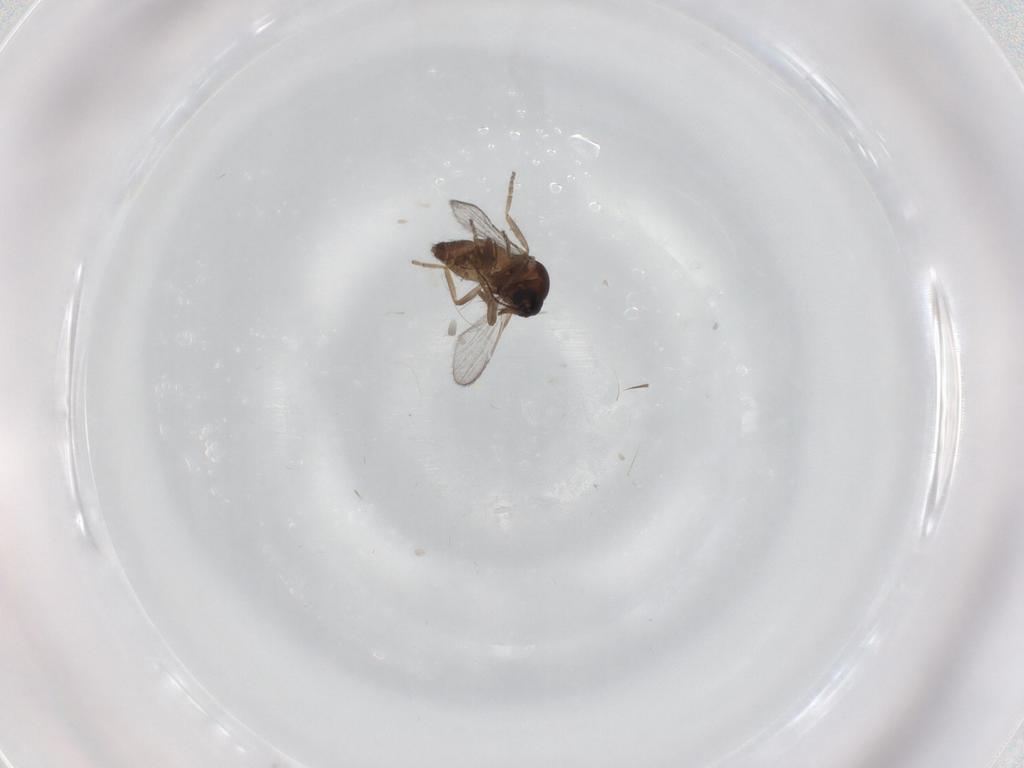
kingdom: Animalia
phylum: Arthropoda
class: Insecta
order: Diptera
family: Ceratopogonidae
